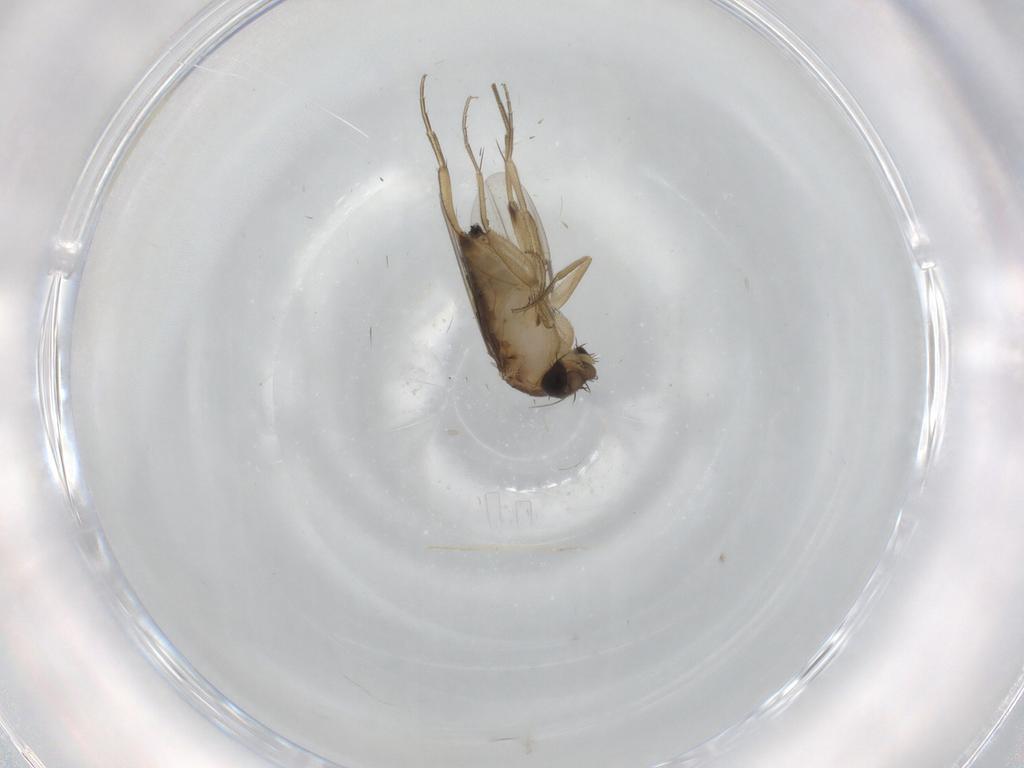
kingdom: Animalia
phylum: Arthropoda
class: Insecta
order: Diptera
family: Phoridae
